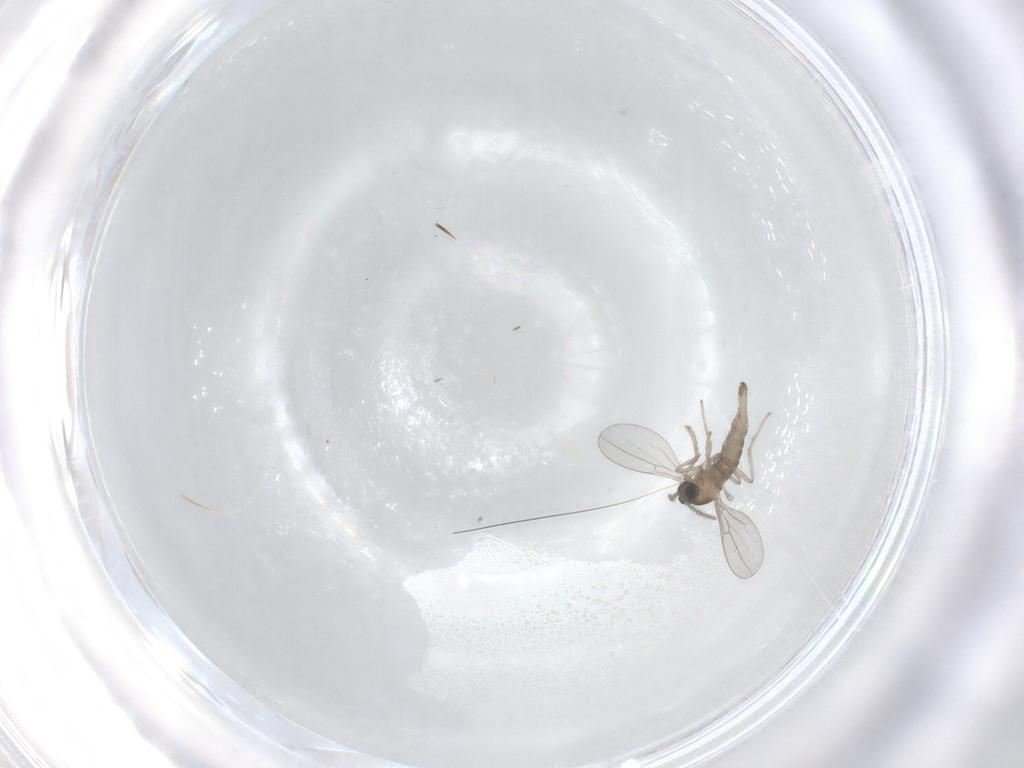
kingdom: Animalia
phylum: Arthropoda
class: Insecta
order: Diptera
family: Cecidomyiidae
